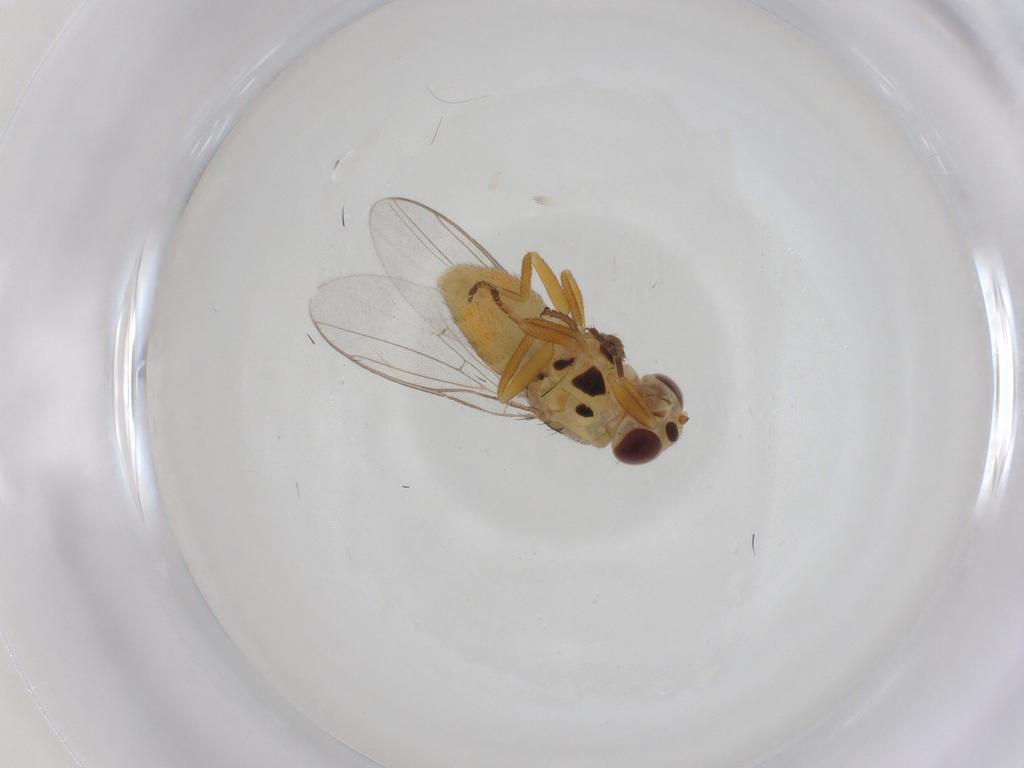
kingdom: Animalia
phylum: Arthropoda
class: Insecta
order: Diptera
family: Chloropidae
